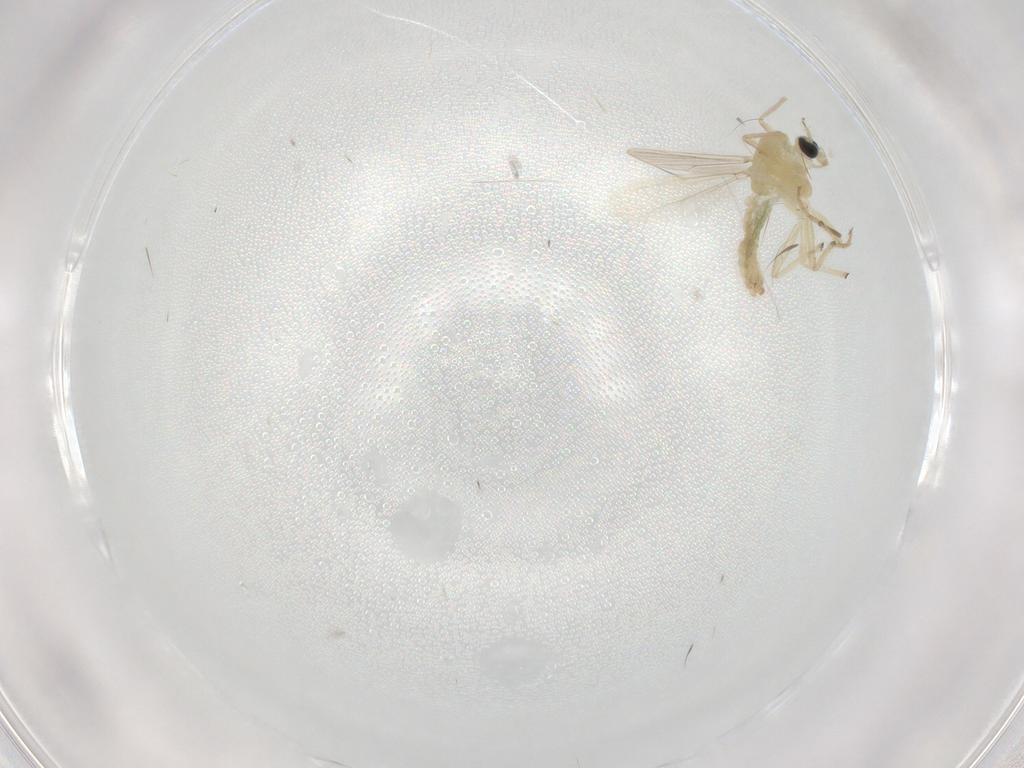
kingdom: Animalia
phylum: Arthropoda
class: Insecta
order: Diptera
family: Chironomidae
